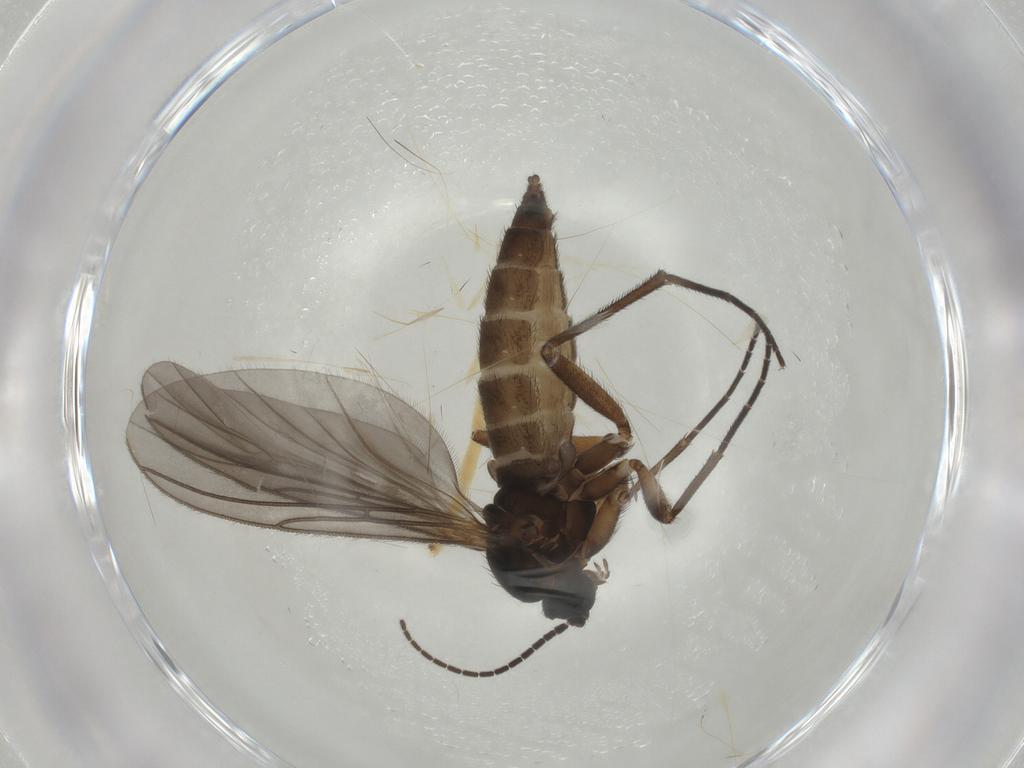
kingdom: Animalia
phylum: Arthropoda
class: Insecta
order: Diptera
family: Sciaridae
